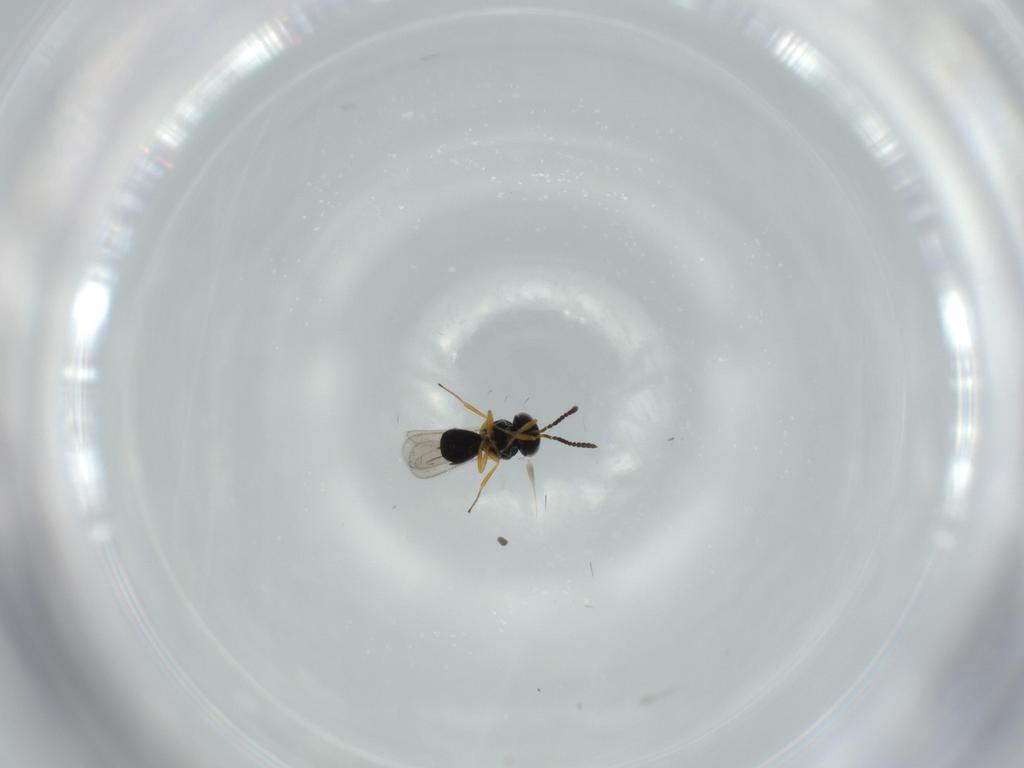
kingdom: Animalia
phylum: Arthropoda
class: Insecta
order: Hymenoptera
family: Scelionidae
